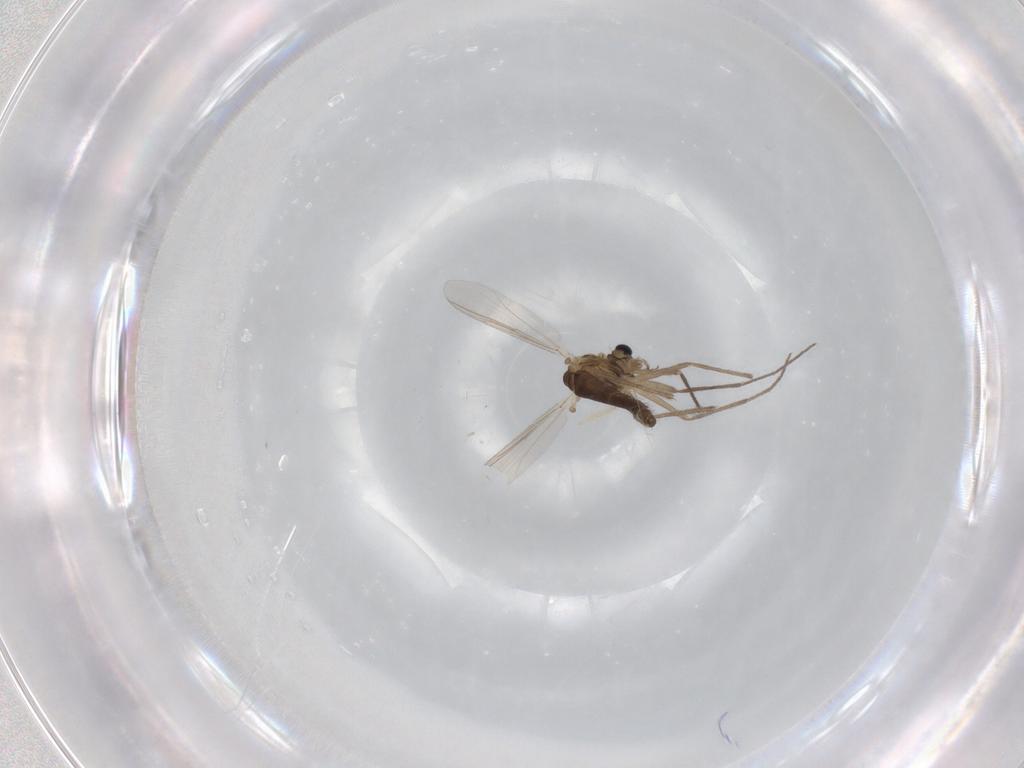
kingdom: Animalia
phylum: Arthropoda
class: Insecta
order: Diptera
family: Chironomidae
